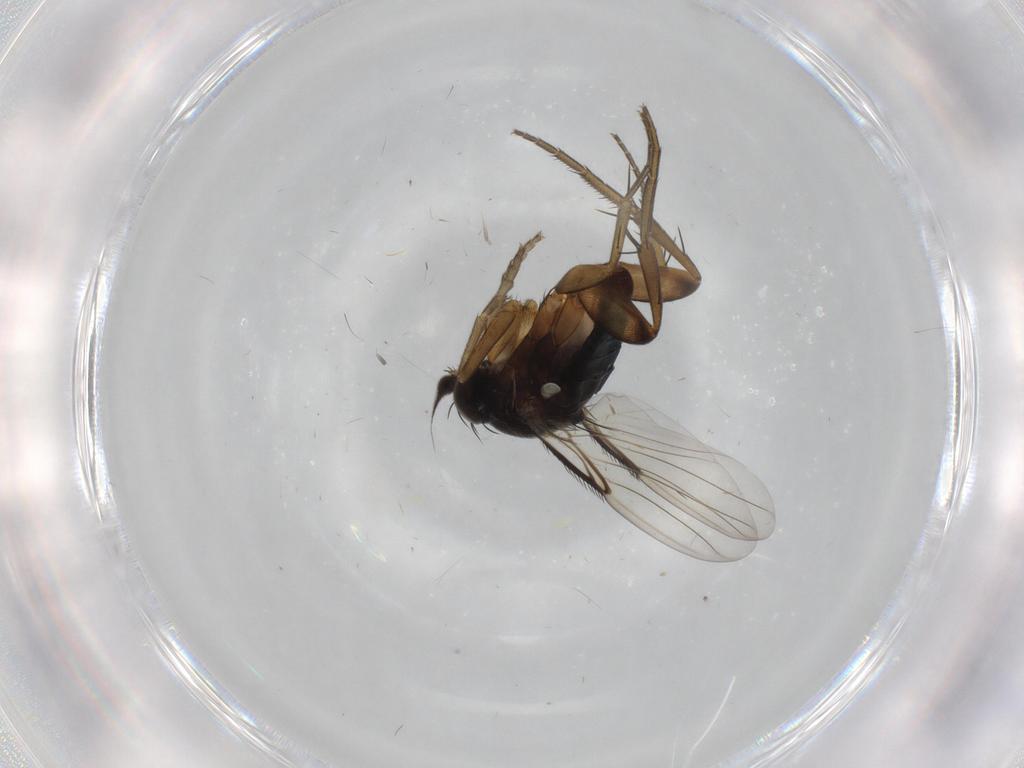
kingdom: Animalia
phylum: Arthropoda
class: Insecta
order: Diptera
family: Phoridae
